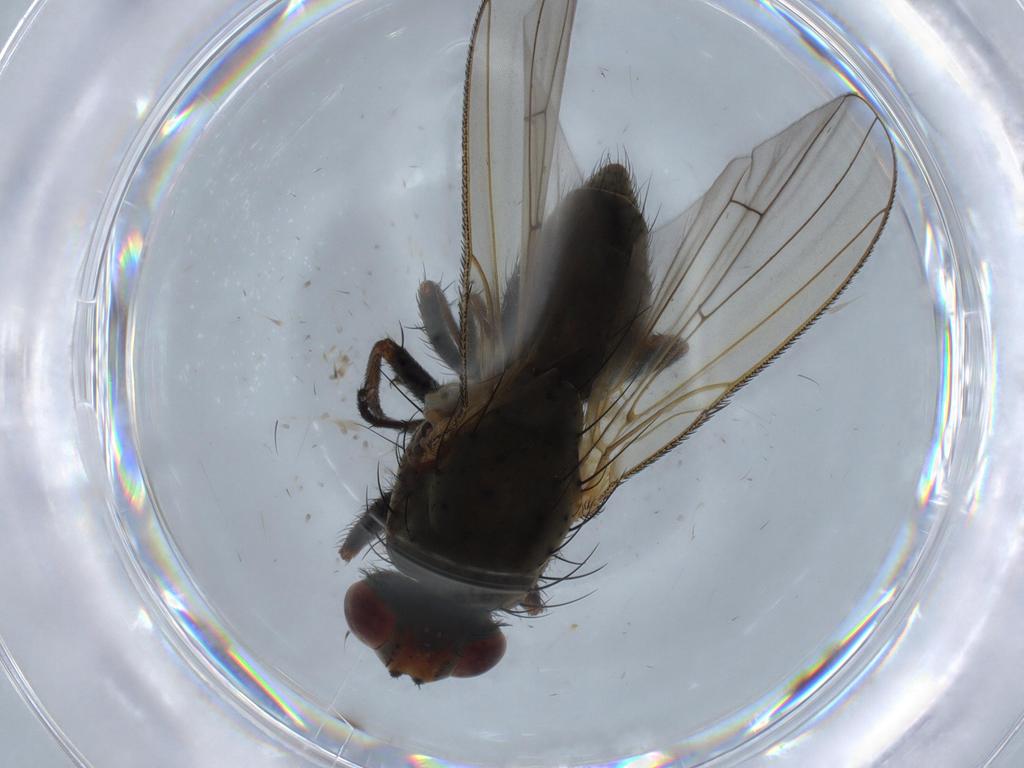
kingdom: Animalia
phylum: Arthropoda
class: Insecta
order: Diptera
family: Anthomyiidae
